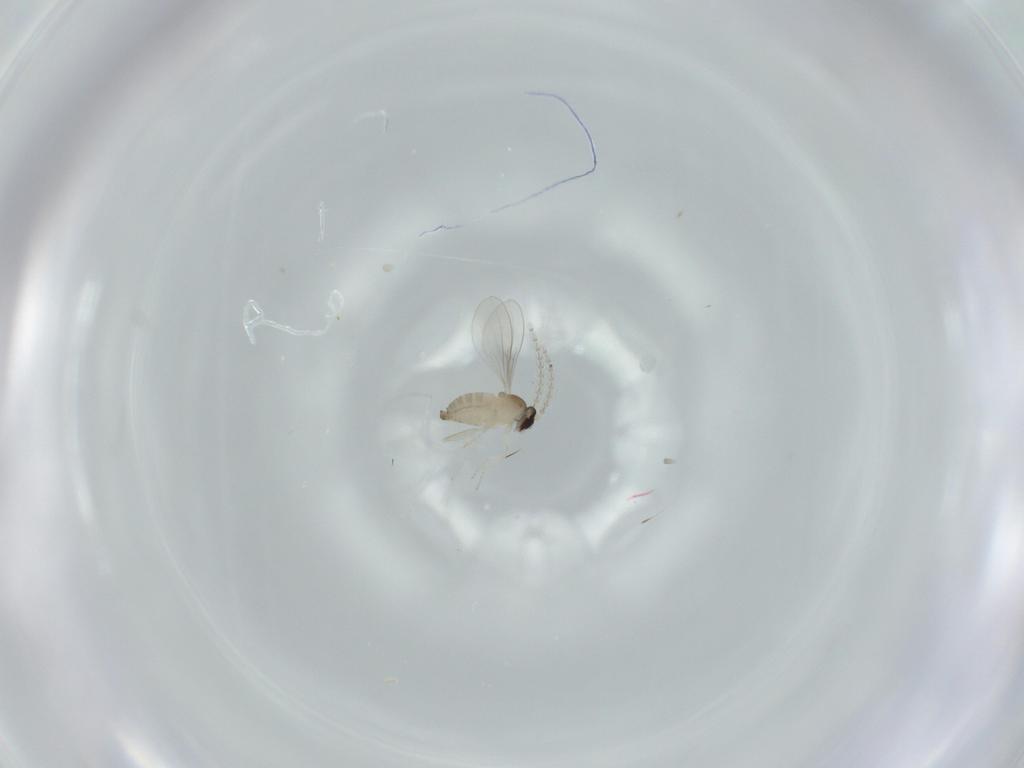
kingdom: Animalia
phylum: Arthropoda
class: Insecta
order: Diptera
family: Cecidomyiidae
